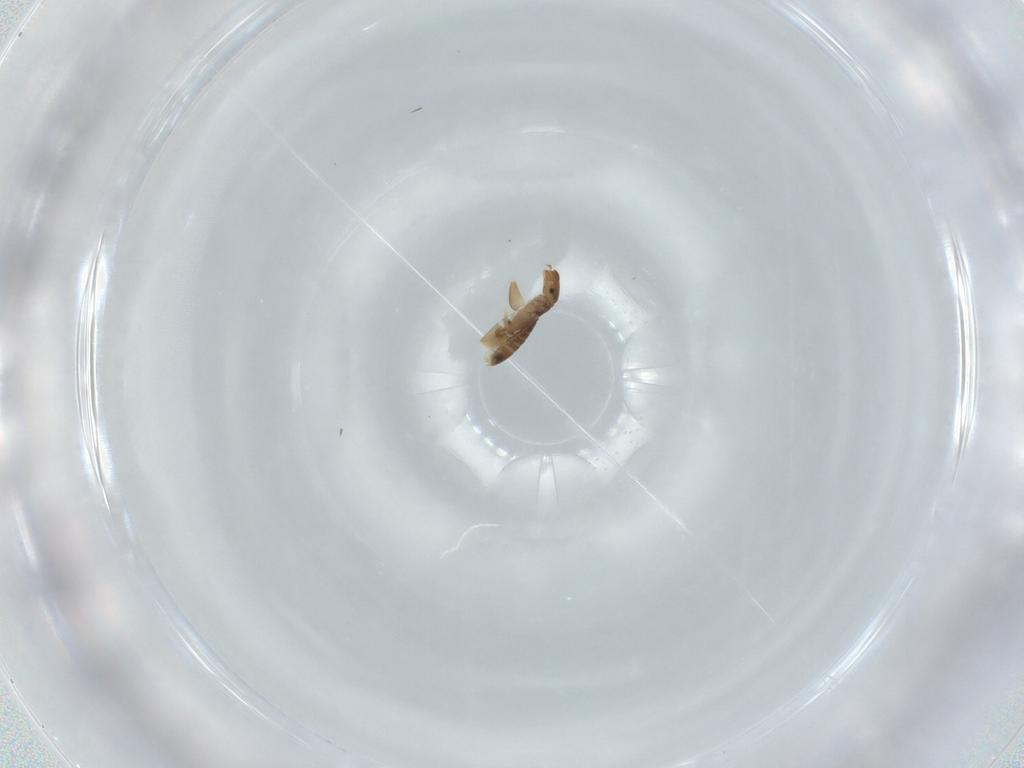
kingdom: Animalia
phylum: Arthropoda
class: Insecta
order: Psocodea
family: Liposcelididae
